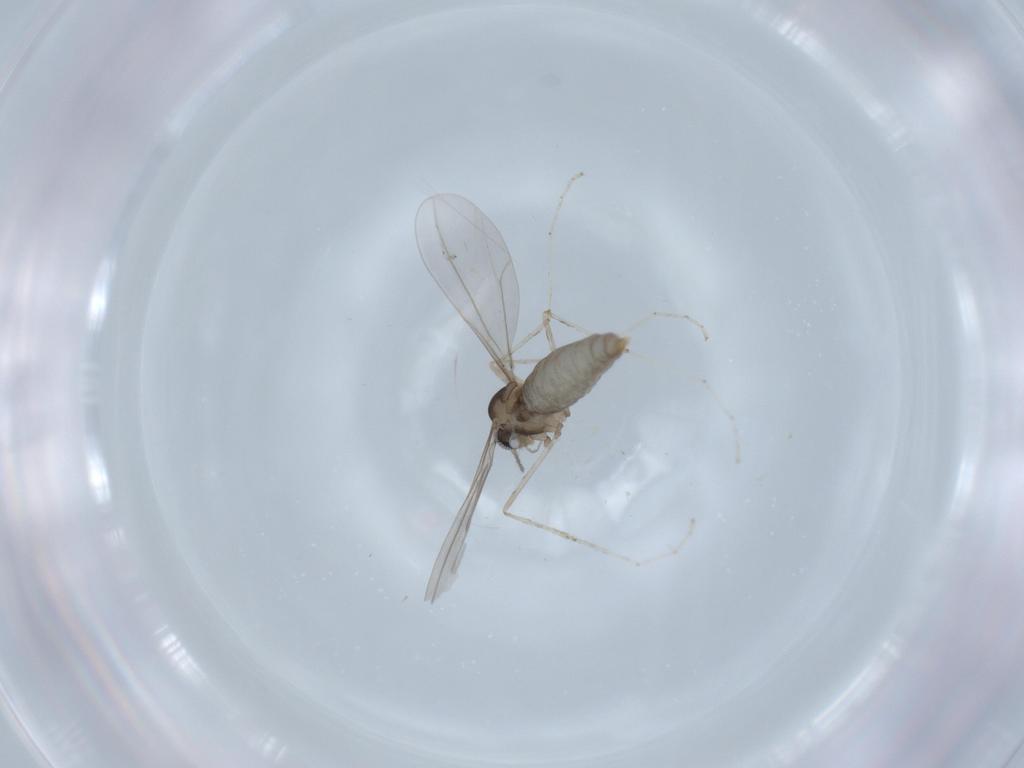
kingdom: Animalia
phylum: Arthropoda
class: Insecta
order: Diptera
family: Cecidomyiidae
